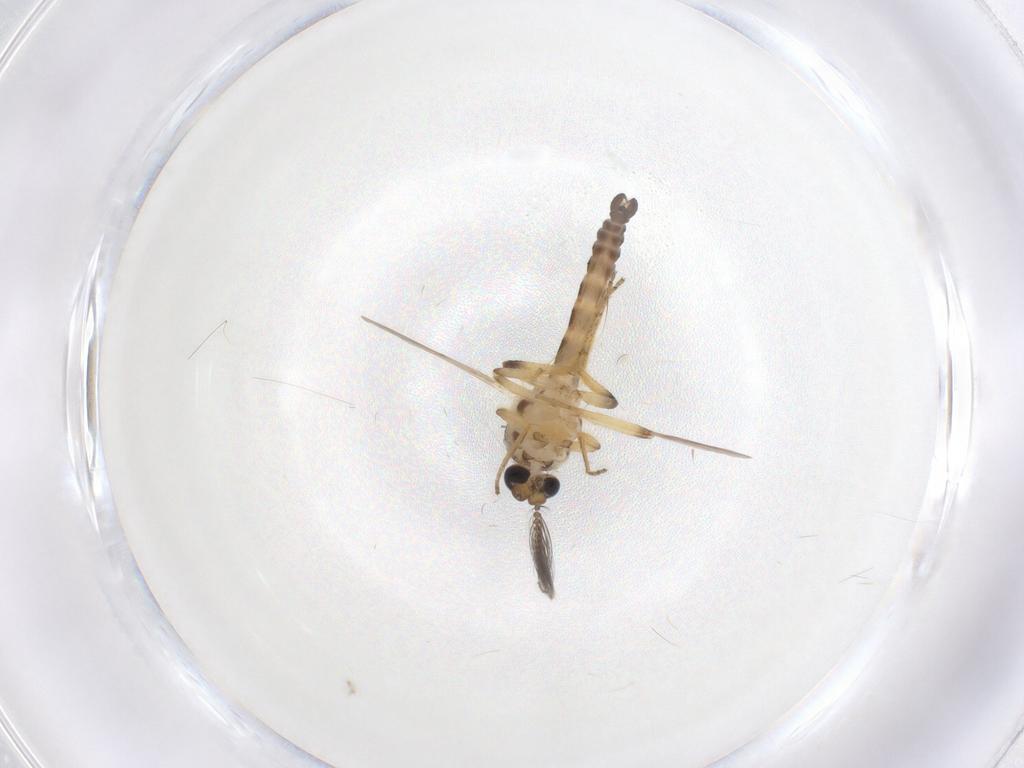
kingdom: Animalia
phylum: Arthropoda
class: Insecta
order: Diptera
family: Ceratopogonidae
